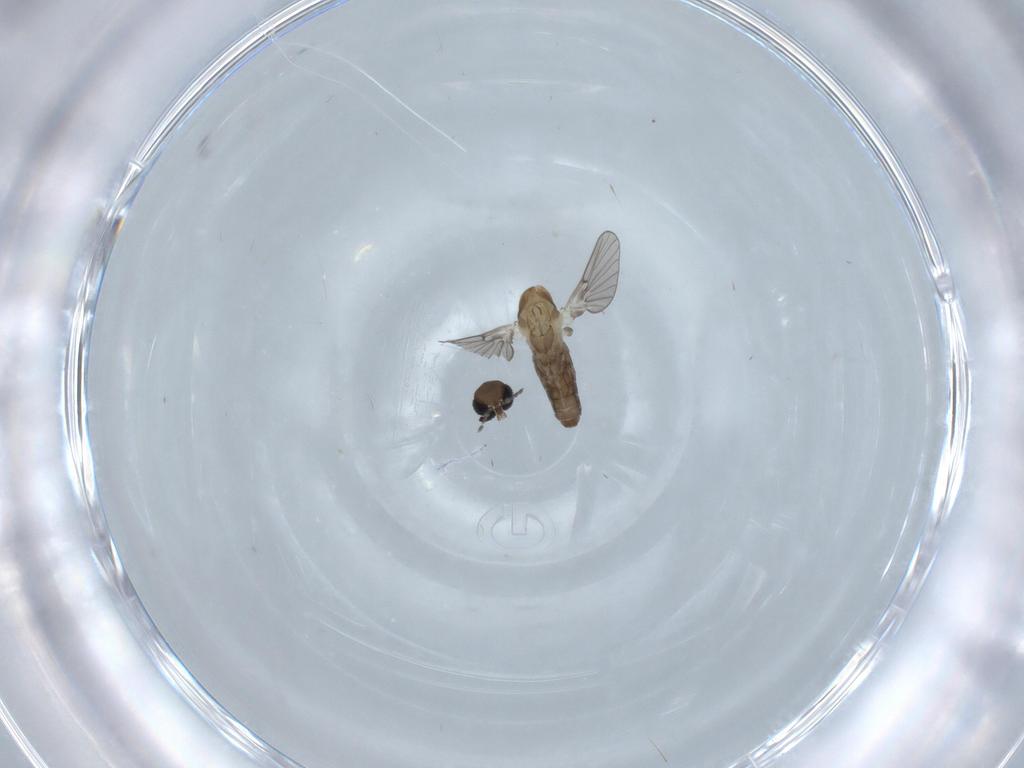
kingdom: Animalia
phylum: Arthropoda
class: Insecta
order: Diptera
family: Psychodidae
